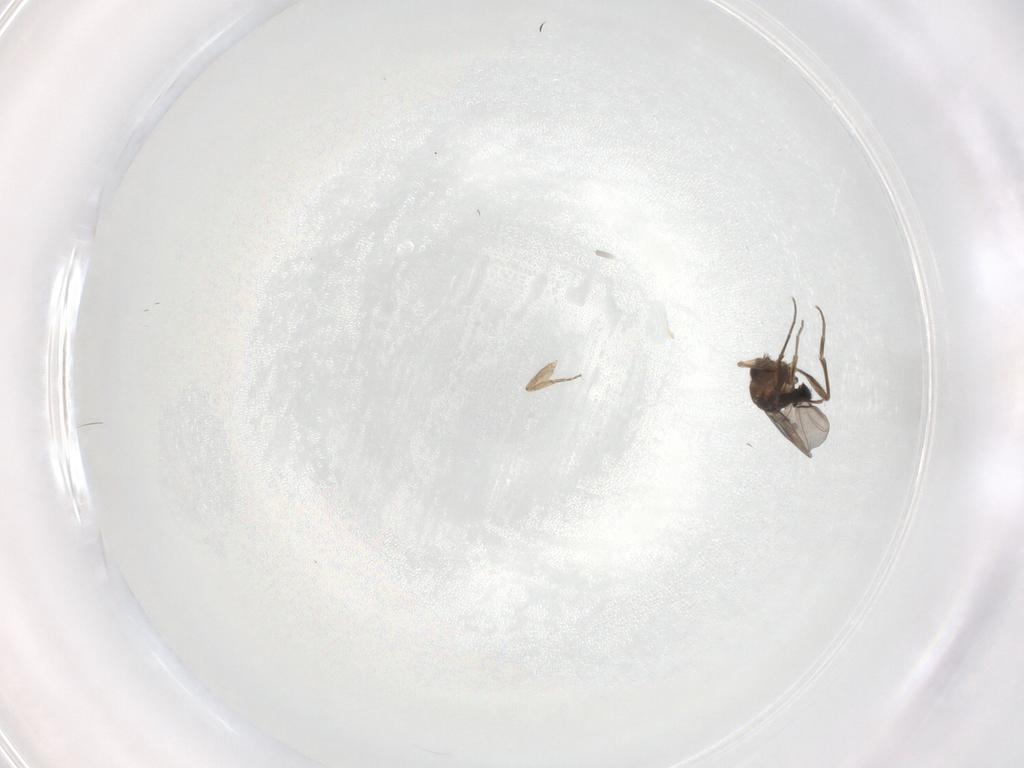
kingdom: Animalia
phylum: Arthropoda
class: Insecta
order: Diptera
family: Phoridae
